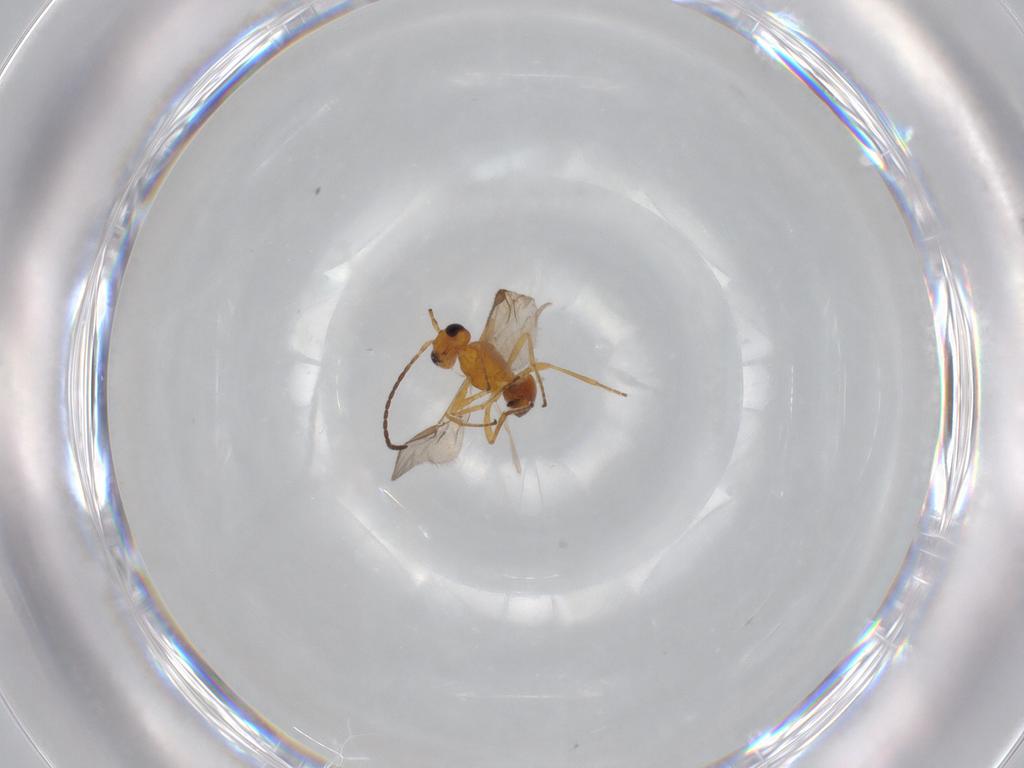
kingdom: Animalia
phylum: Arthropoda
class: Insecta
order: Hymenoptera
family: Braconidae
